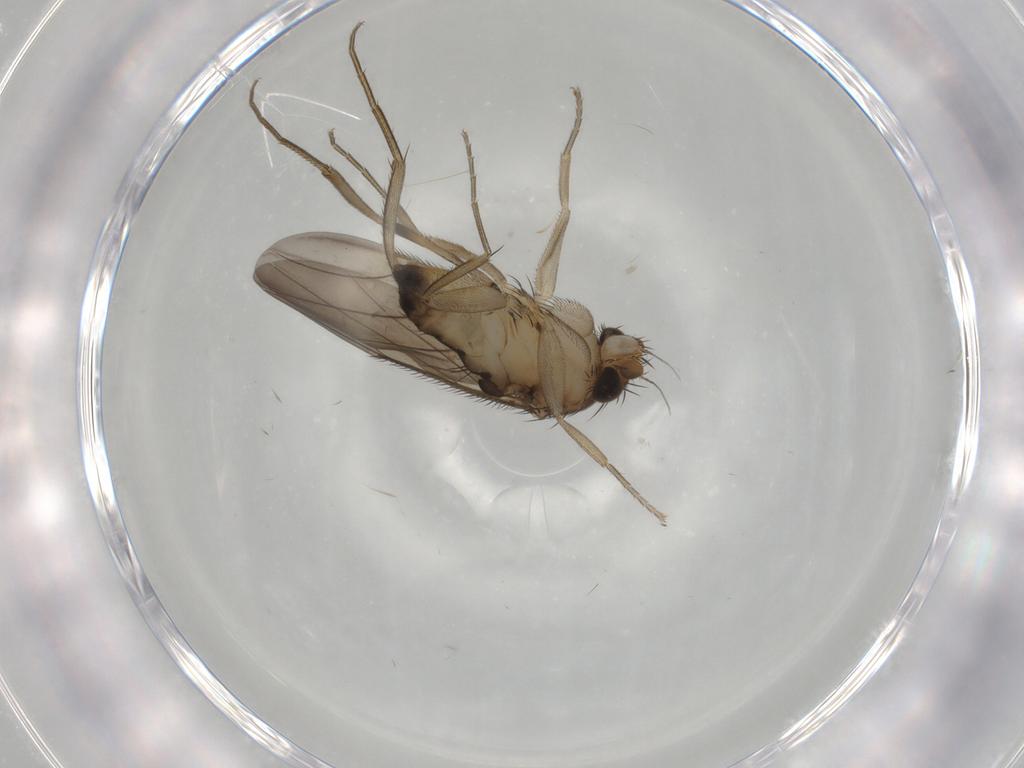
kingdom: Animalia
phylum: Arthropoda
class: Insecta
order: Diptera
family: Phoridae
